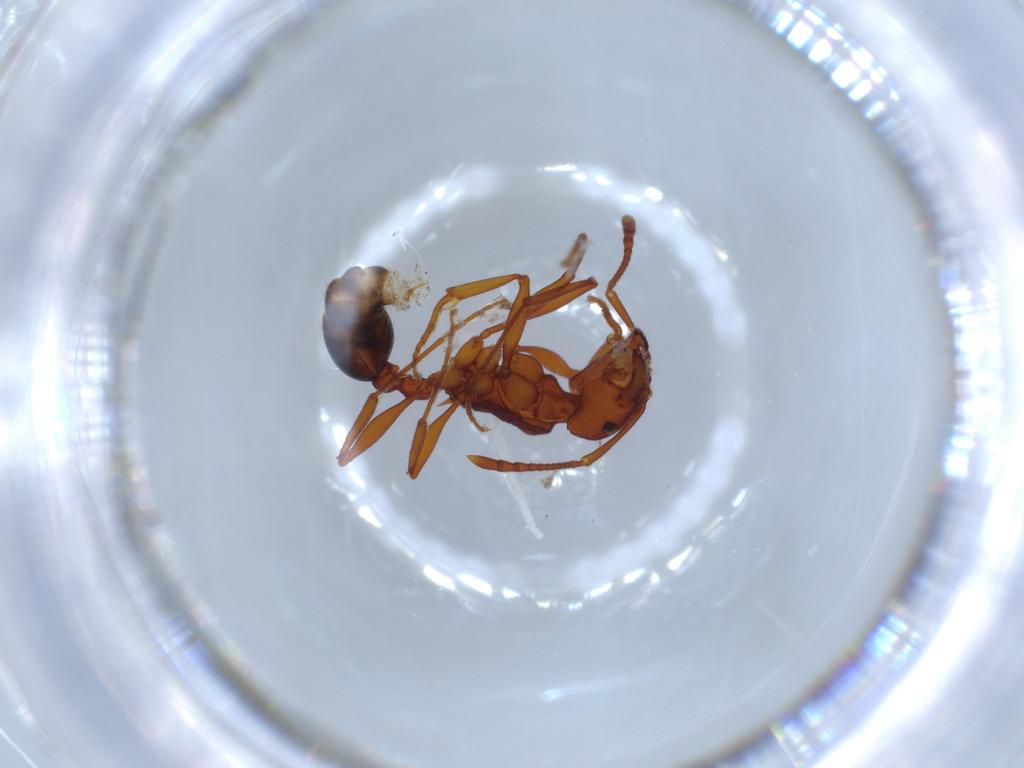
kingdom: Animalia
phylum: Arthropoda
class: Insecta
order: Hymenoptera
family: Formicidae
